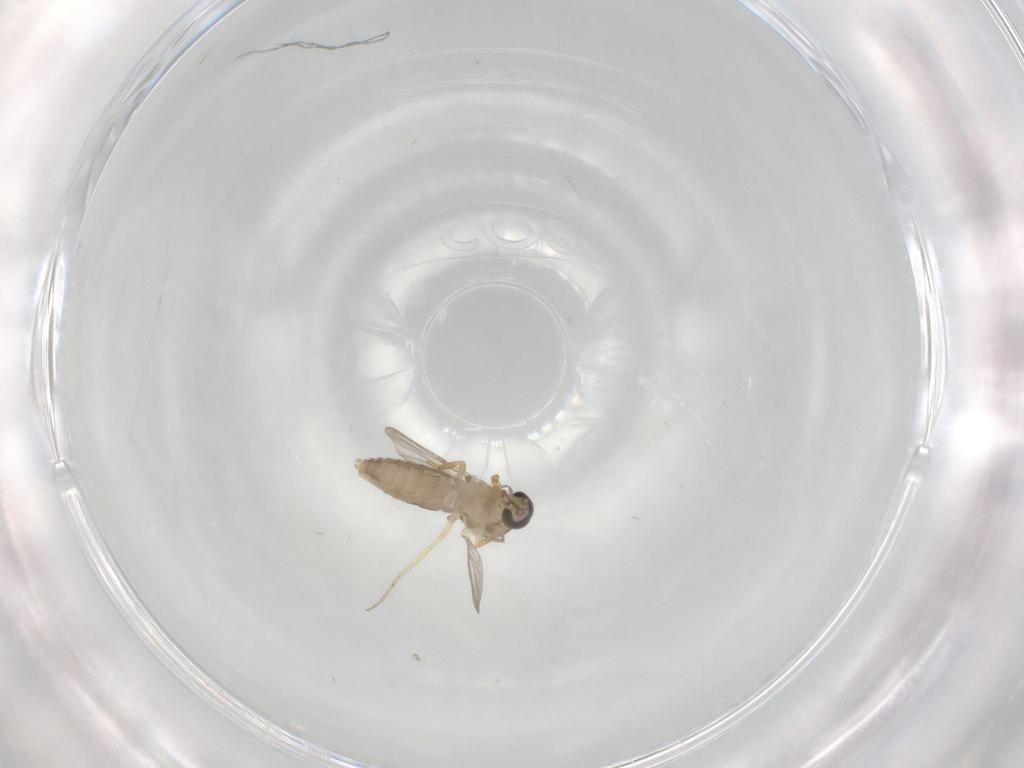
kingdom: Animalia
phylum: Arthropoda
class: Insecta
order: Diptera
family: Ceratopogonidae
